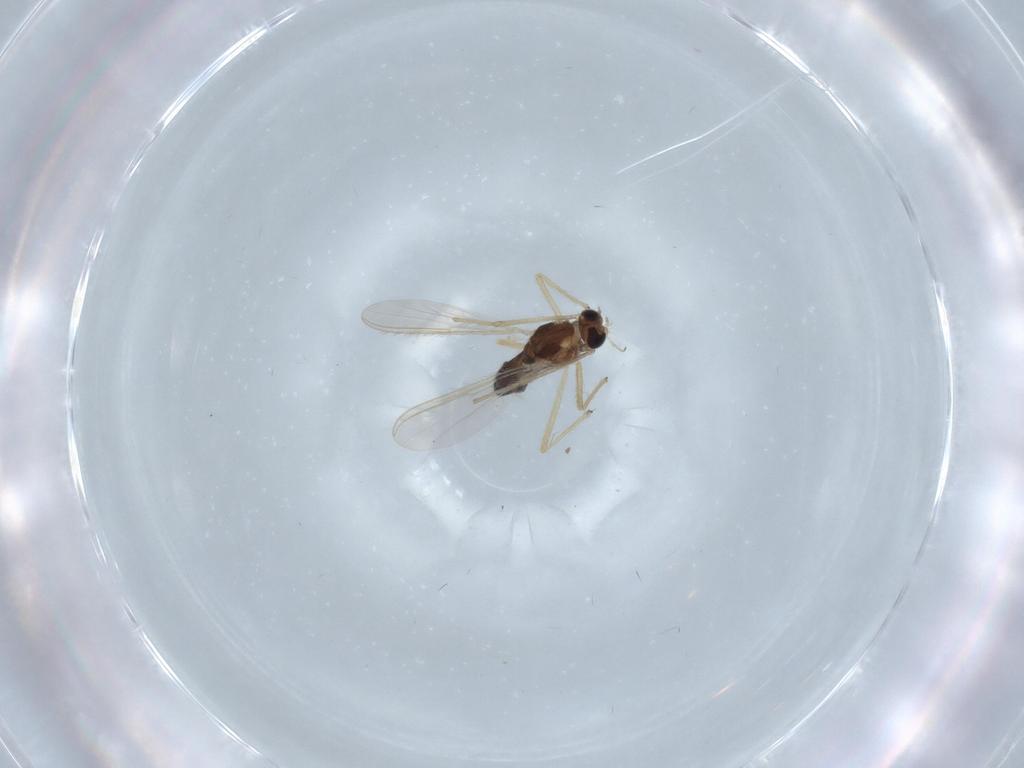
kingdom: Animalia
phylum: Arthropoda
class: Insecta
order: Diptera
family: Chironomidae
